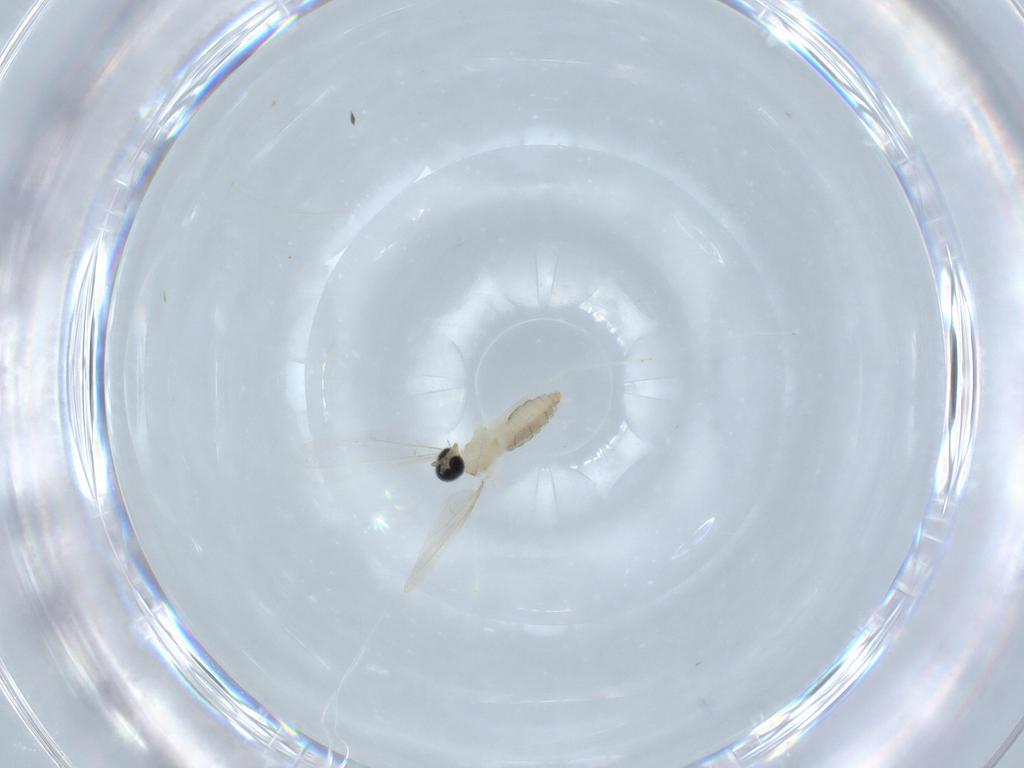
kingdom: Animalia
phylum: Arthropoda
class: Insecta
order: Diptera
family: Cecidomyiidae
